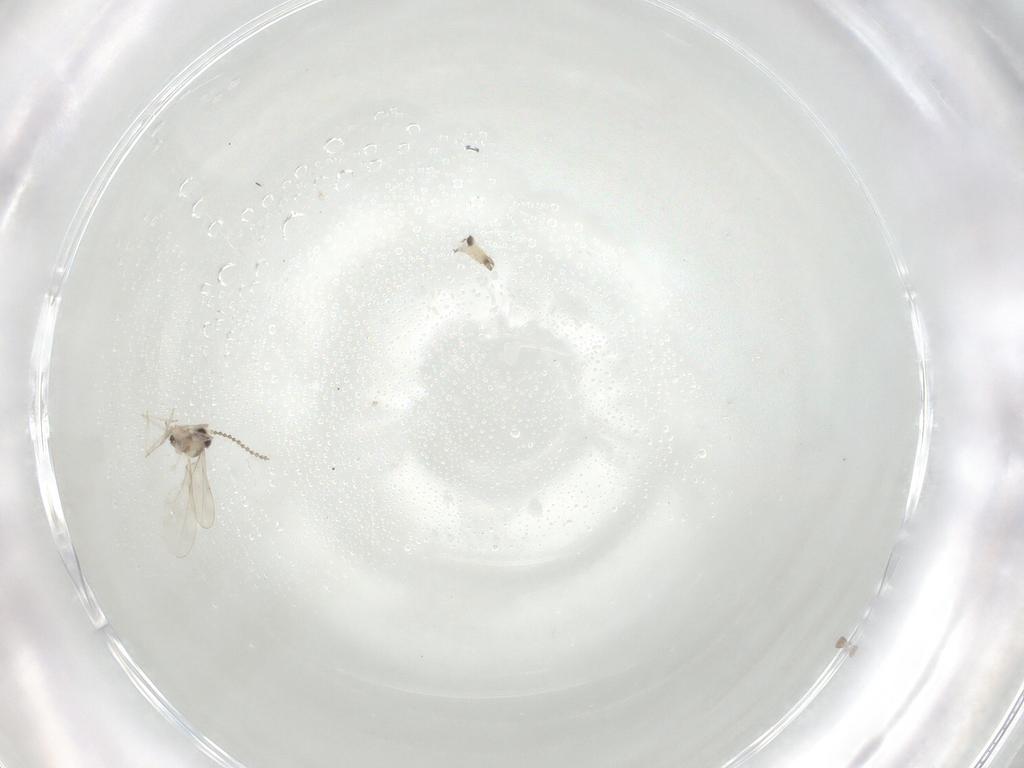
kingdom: Animalia
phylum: Arthropoda
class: Insecta
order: Diptera
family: Cecidomyiidae
